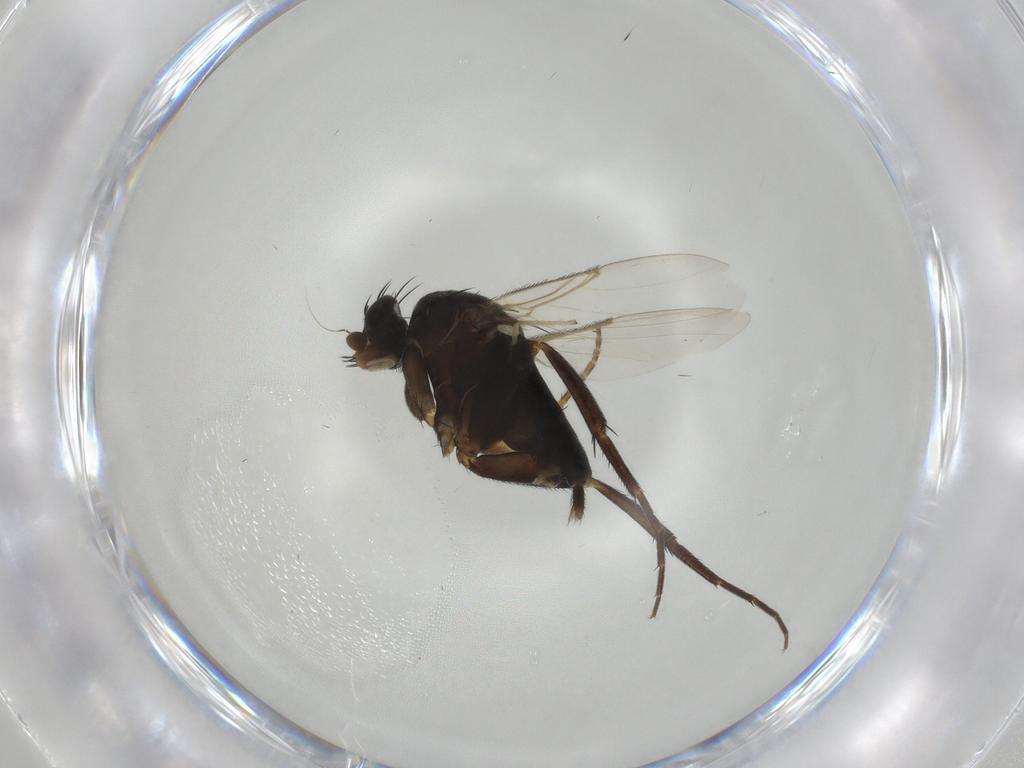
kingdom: Animalia
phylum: Arthropoda
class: Insecta
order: Diptera
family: Phoridae
